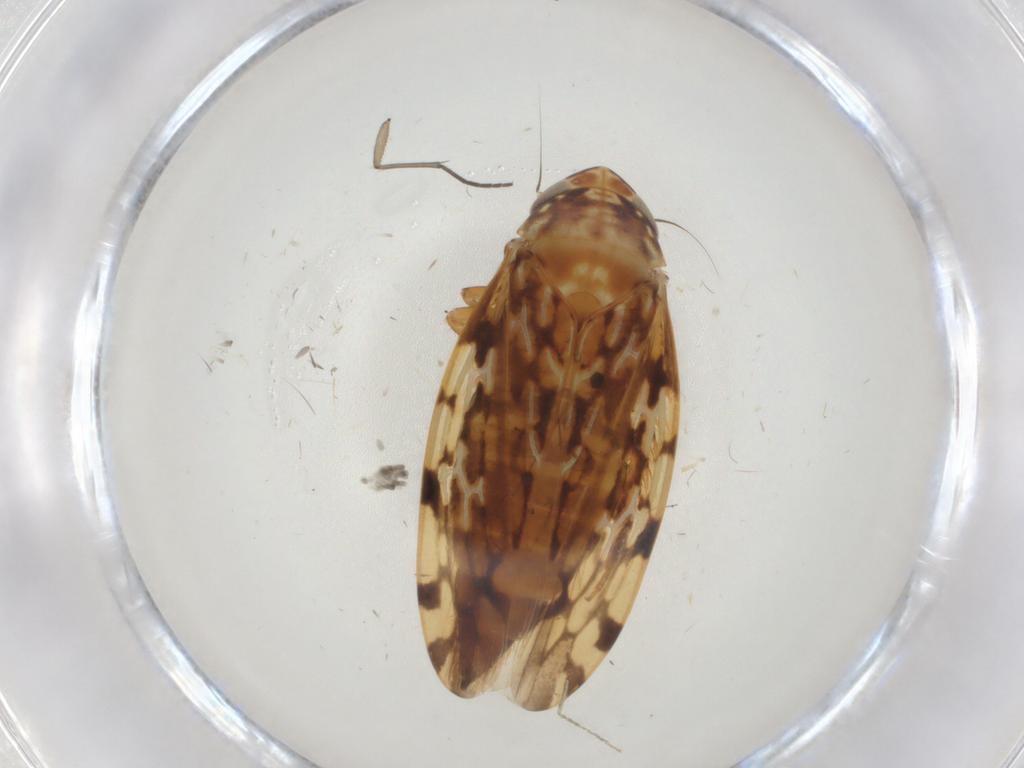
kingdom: Animalia
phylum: Arthropoda
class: Insecta
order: Hemiptera
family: Cicadellidae
